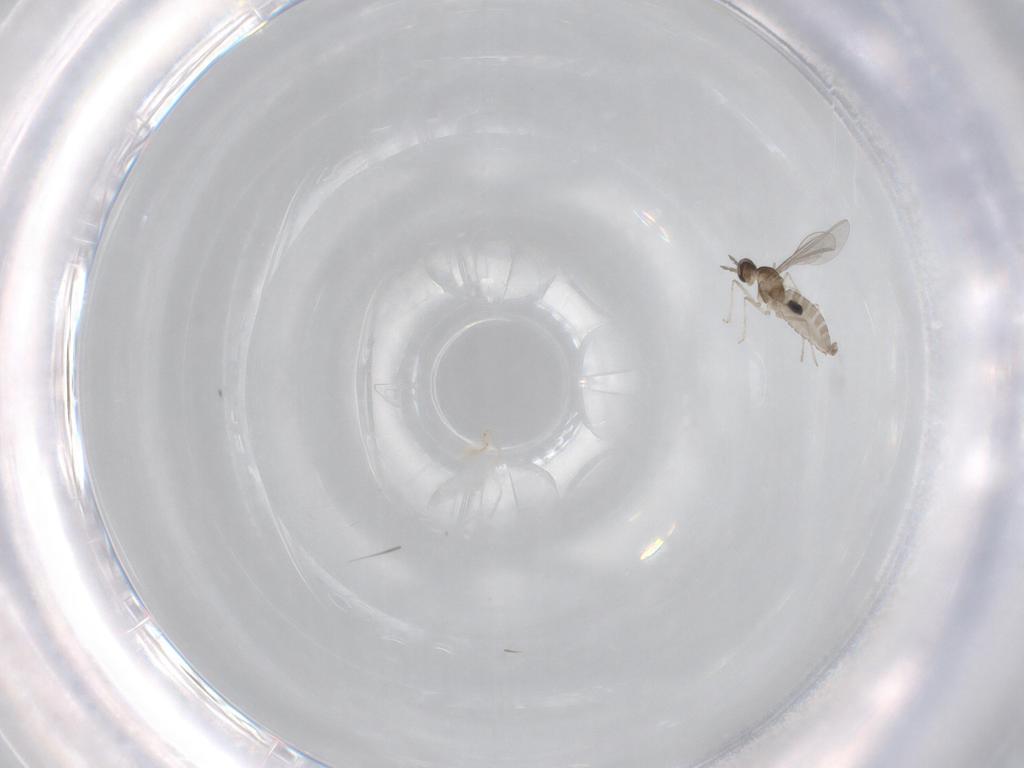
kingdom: Animalia
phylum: Arthropoda
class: Insecta
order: Diptera
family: Cecidomyiidae
